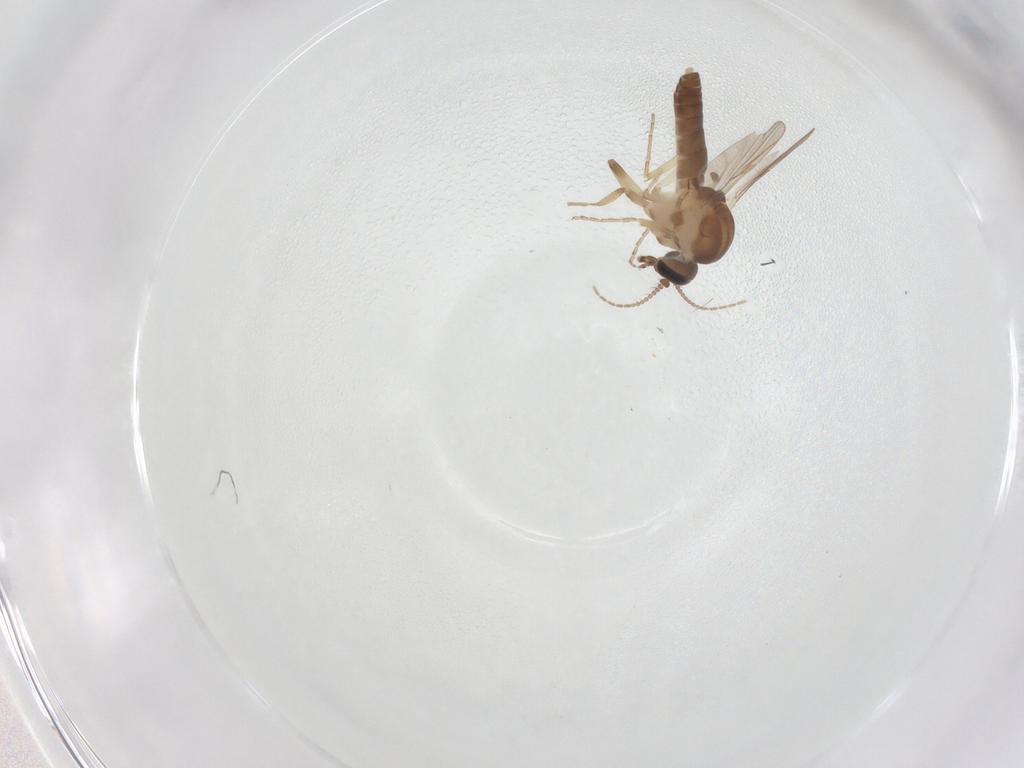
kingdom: Animalia
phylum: Arthropoda
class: Insecta
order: Diptera
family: Ceratopogonidae
